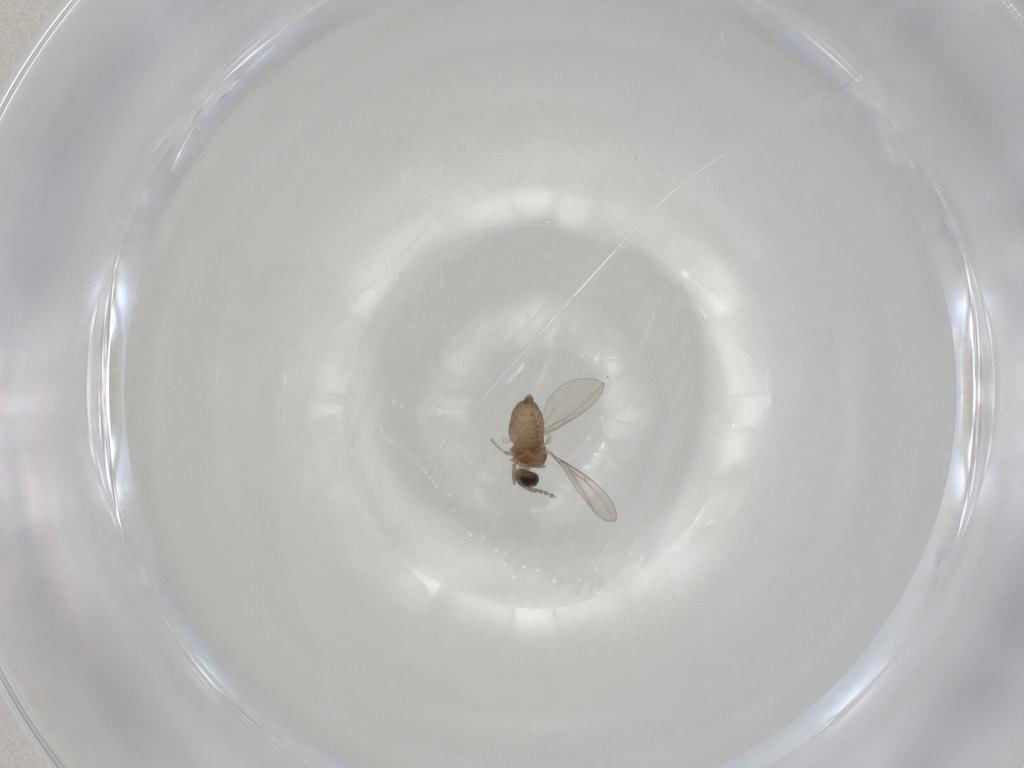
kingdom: Animalia
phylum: Arthropoda
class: Insecta
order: Diptera
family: Cecidomyiidae
